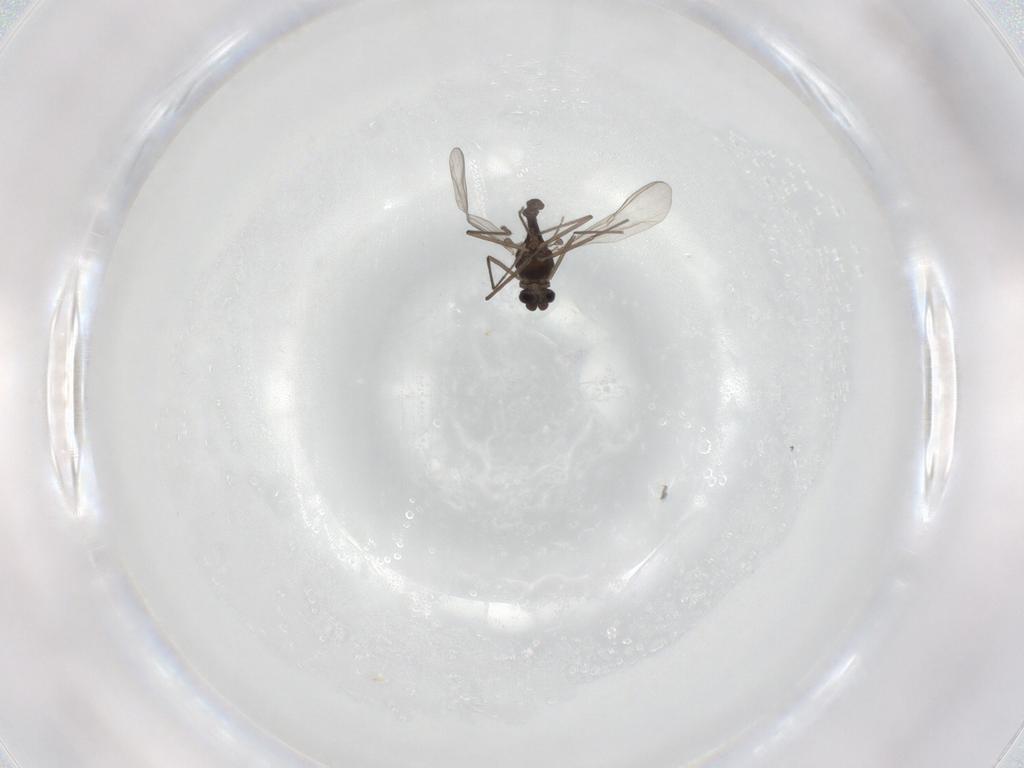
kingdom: Animalia
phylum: Arthropoda
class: Insecta
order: Diptera
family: Chironomidae
